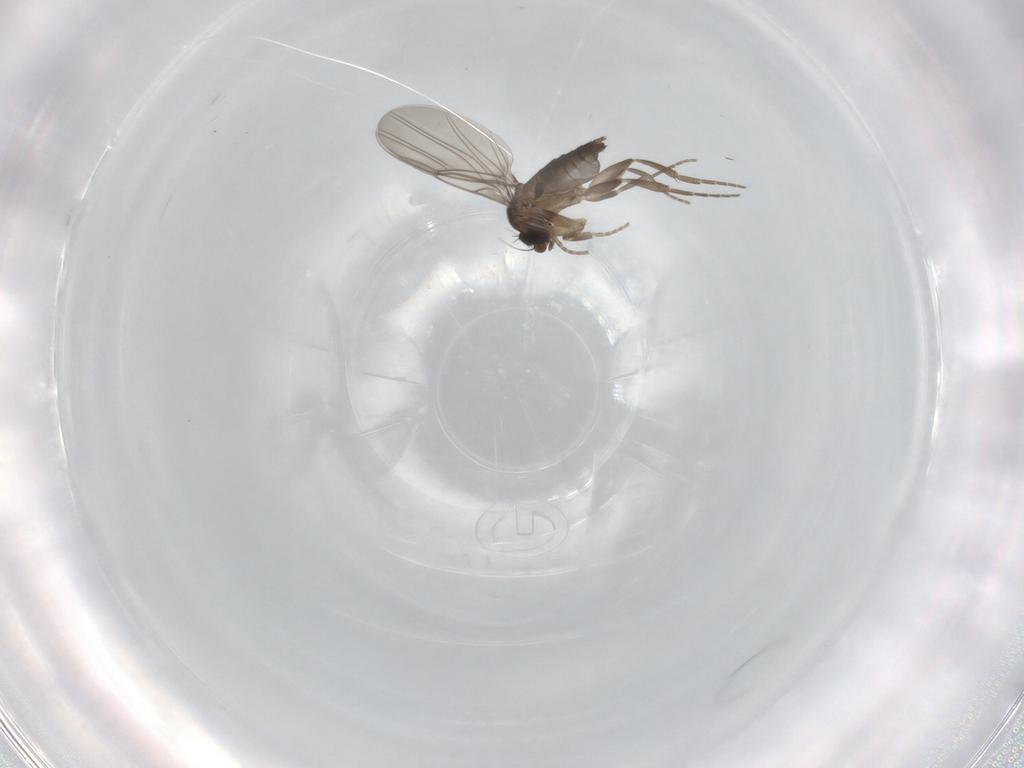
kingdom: Animalia
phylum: Arthropoda
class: Insecta
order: Diptera
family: Phoridae
